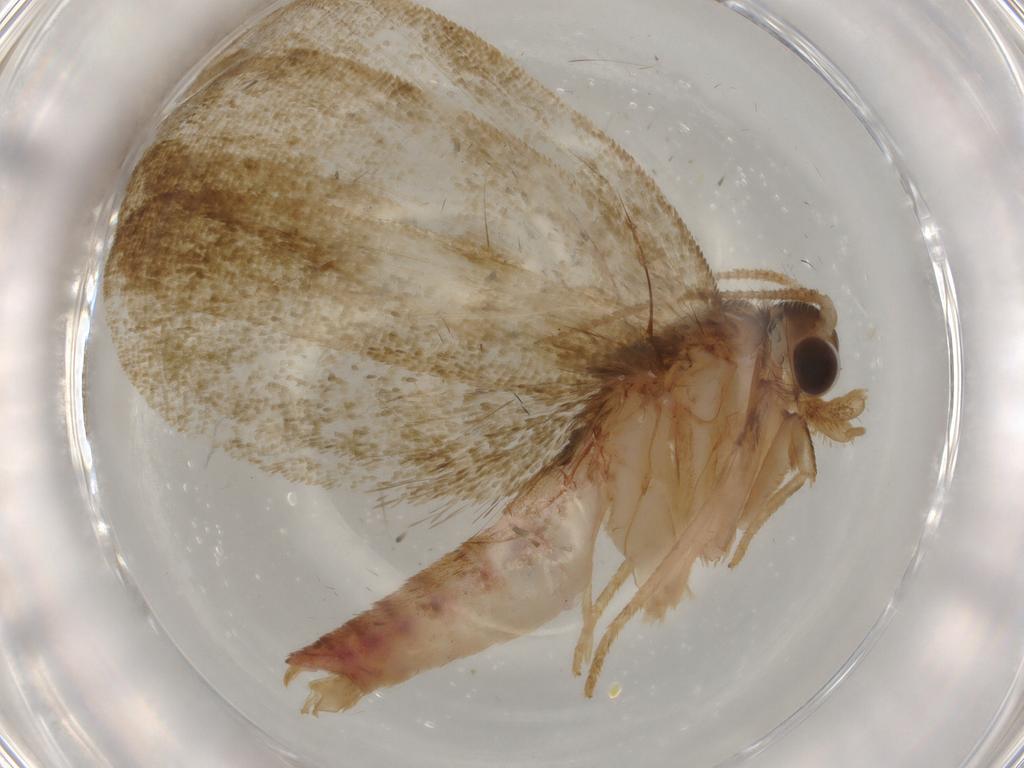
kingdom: Animalia
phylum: Arthropoda
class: Insecta
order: Lepidoptera
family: Geometridae
